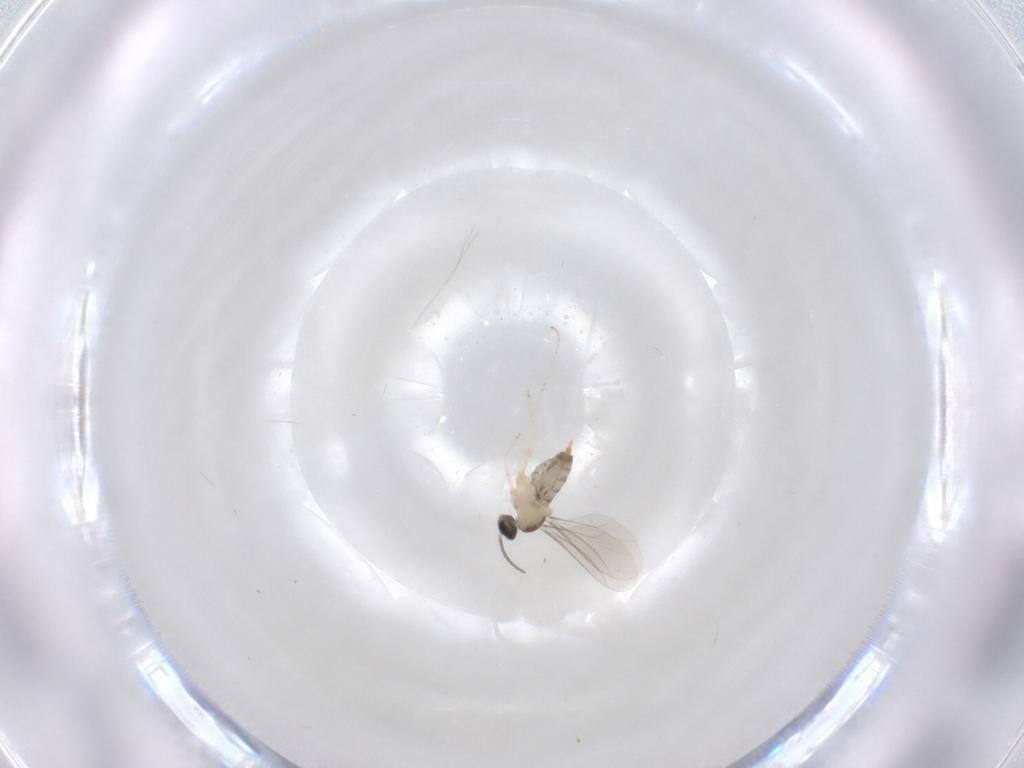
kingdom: Animalia
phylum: Arthropoda
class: Insecta
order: Diptera
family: Cecidomyiidae
